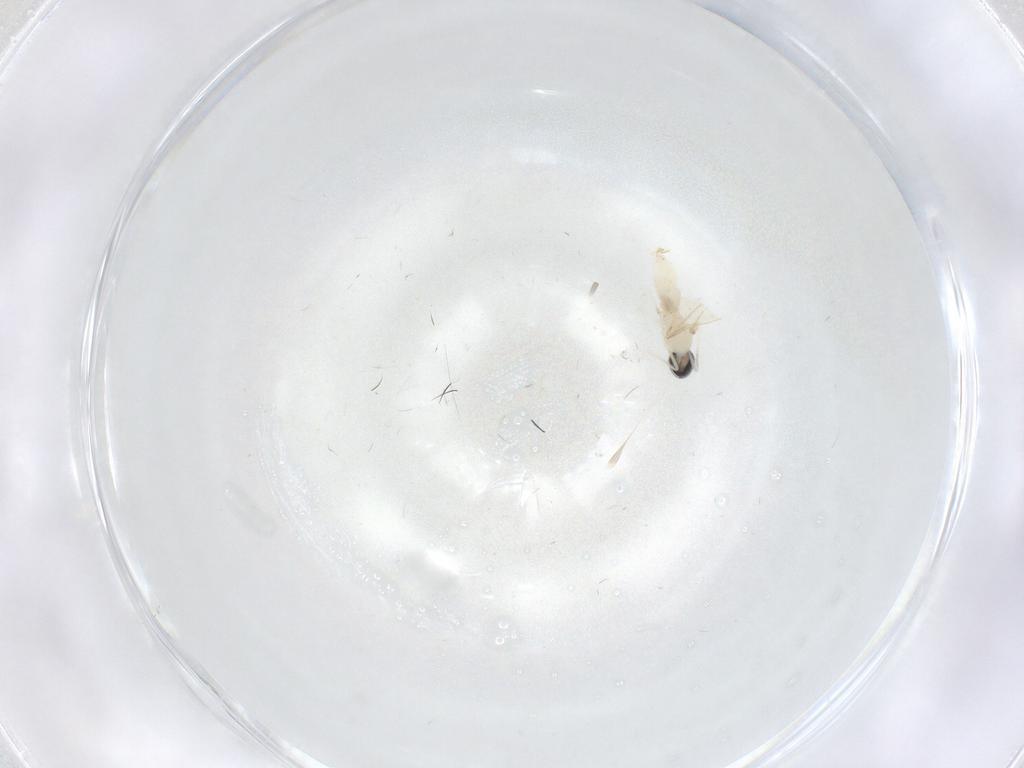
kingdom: Animalia
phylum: Arthropoda
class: Insecta
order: Diptera
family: Cecidomyiidae
